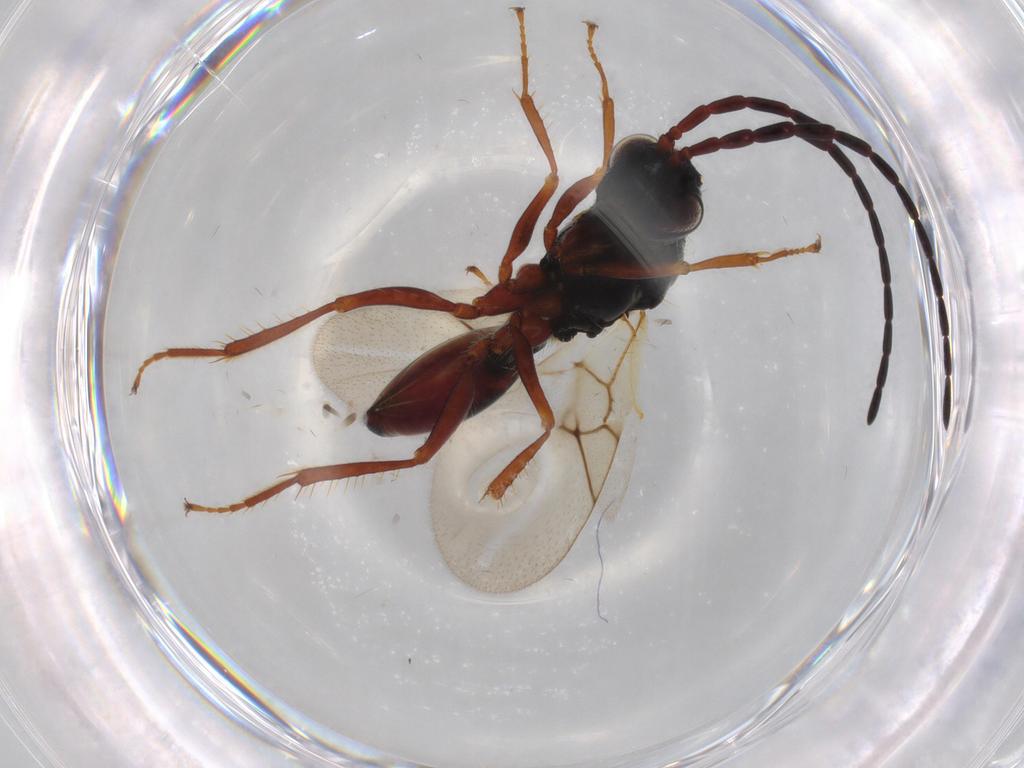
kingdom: Animalia
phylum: Arthropoda
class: Insecta
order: Hymenoptera
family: Figitidae
